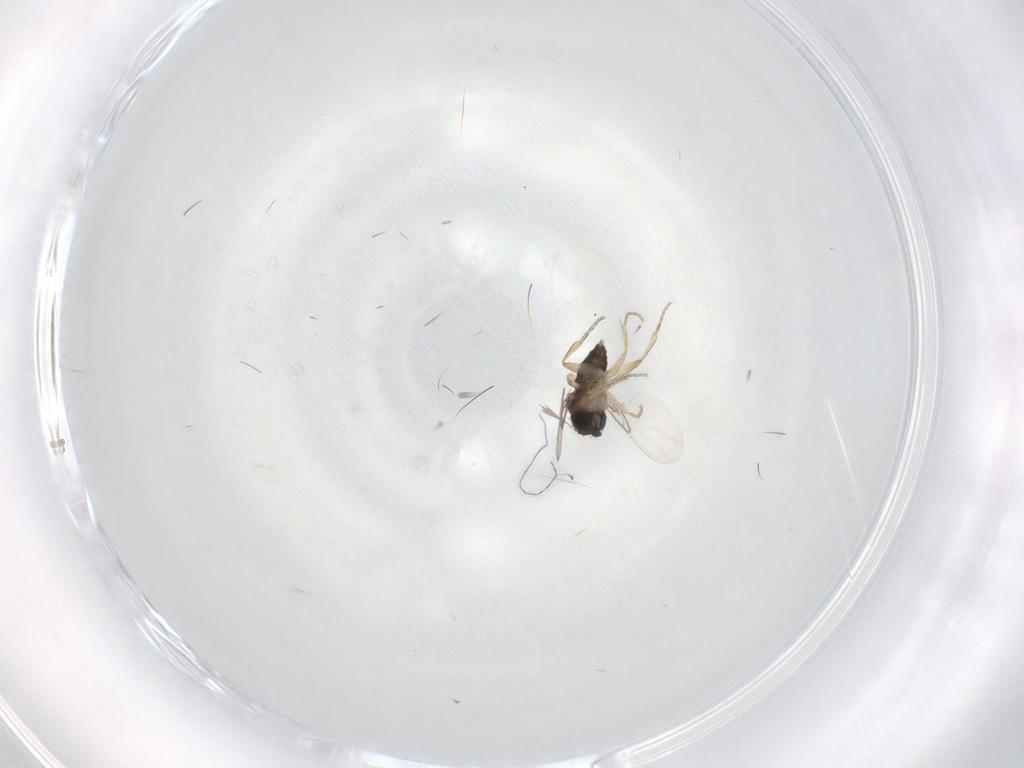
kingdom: Animalia
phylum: Arthropoda
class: Insecta
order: Diptera
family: Phoridae
